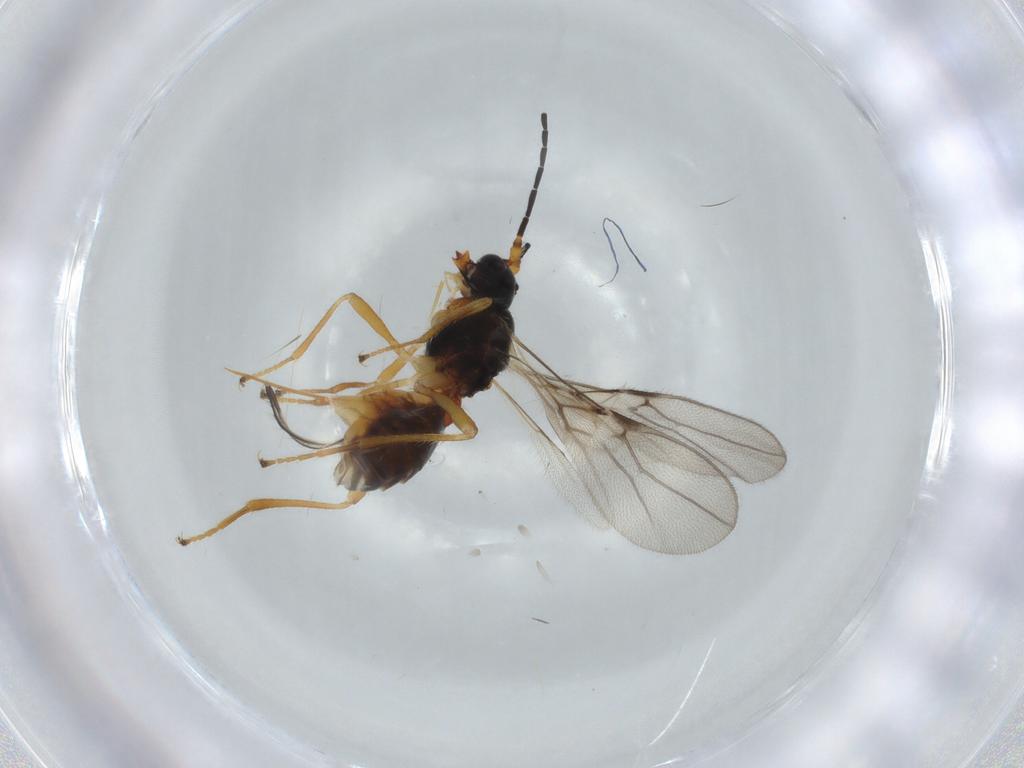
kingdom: Animalia
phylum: Arthropoda
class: Insecta
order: Hymenoptera
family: Braconidae
